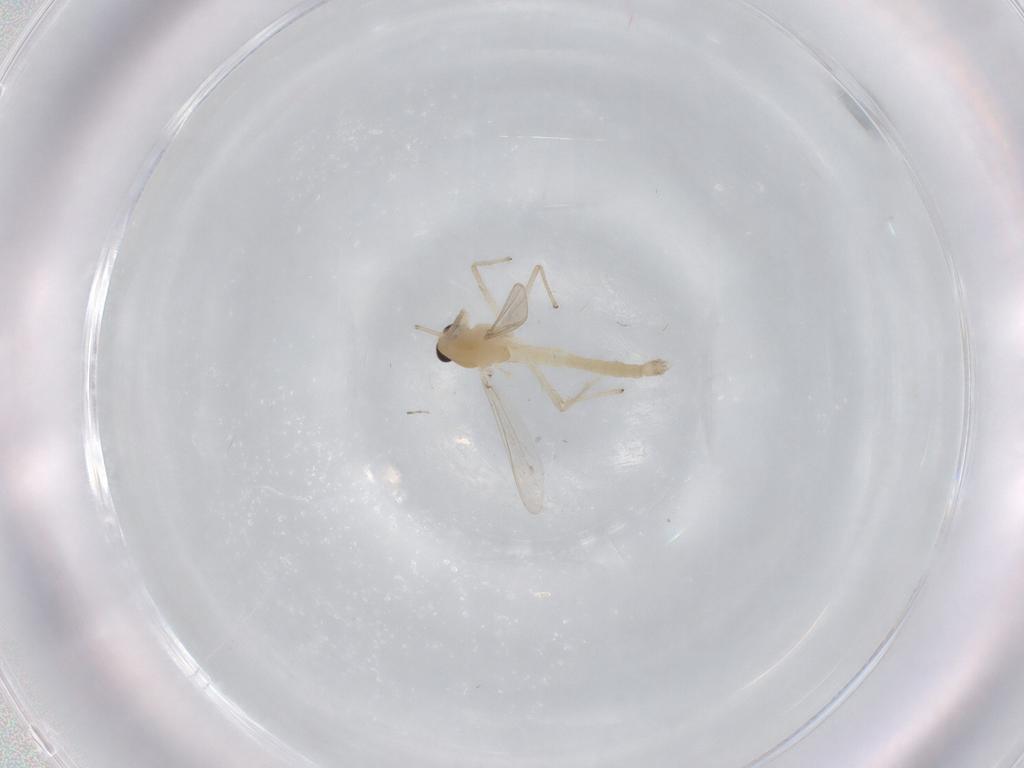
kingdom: Animalia
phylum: Arthropoda
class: Insecta
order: Diptera
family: Chironomidae
